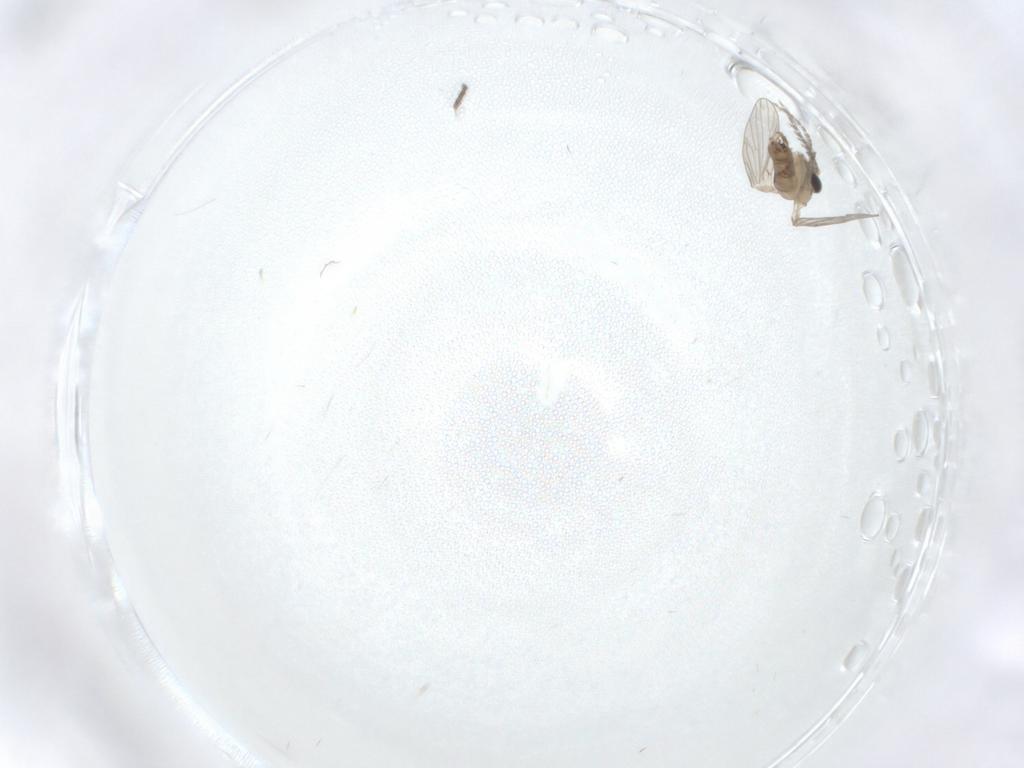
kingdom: Animalia
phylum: Arthropoda
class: Insecta
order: Diptera
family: Psychodidae
